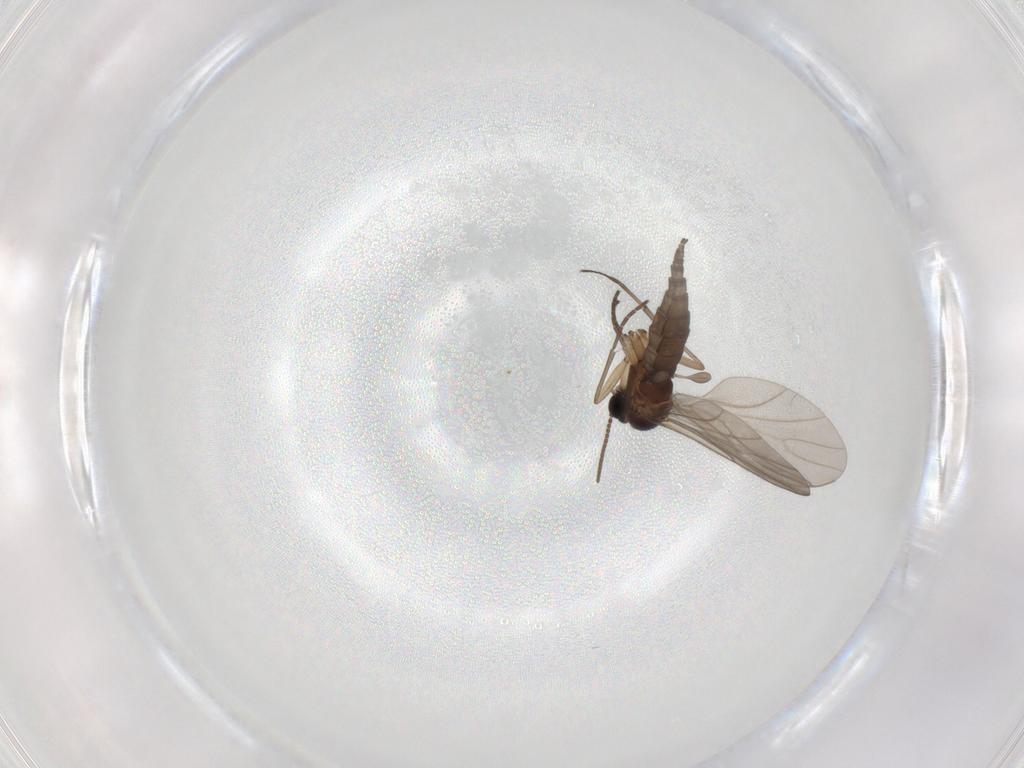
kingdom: Animalia
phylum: Arthropoda
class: Insecta
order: Diptera
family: Sciaridae
